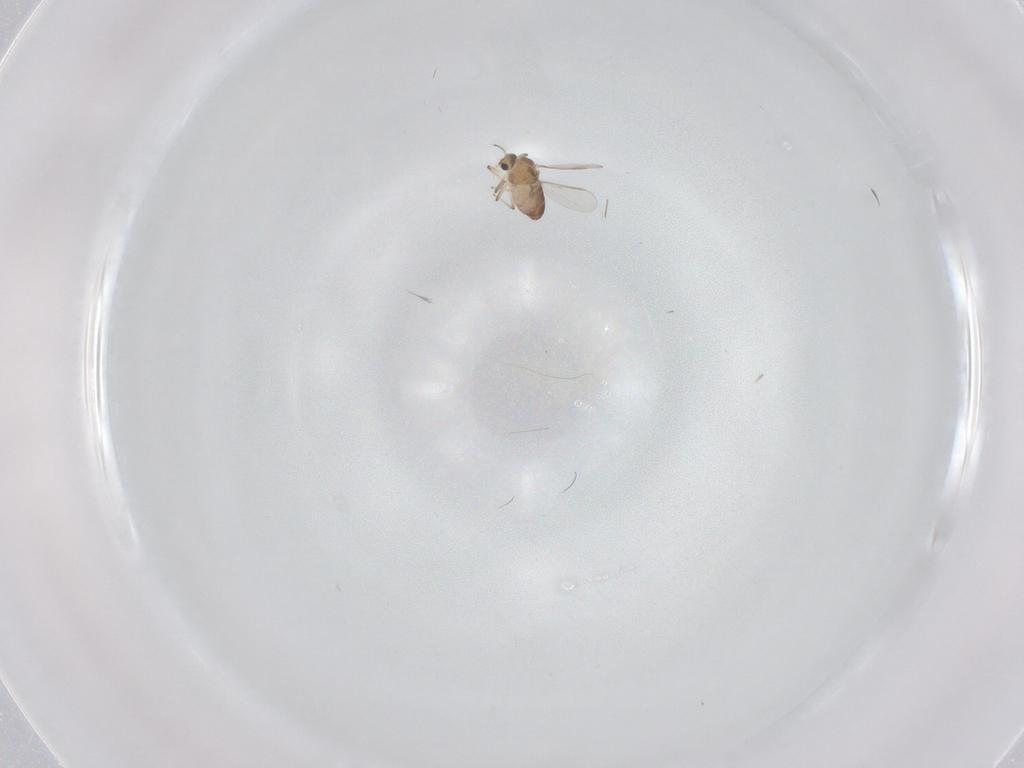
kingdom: Animalia
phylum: Arthropoda
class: Insecta
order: Diptera
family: Chironomidae
